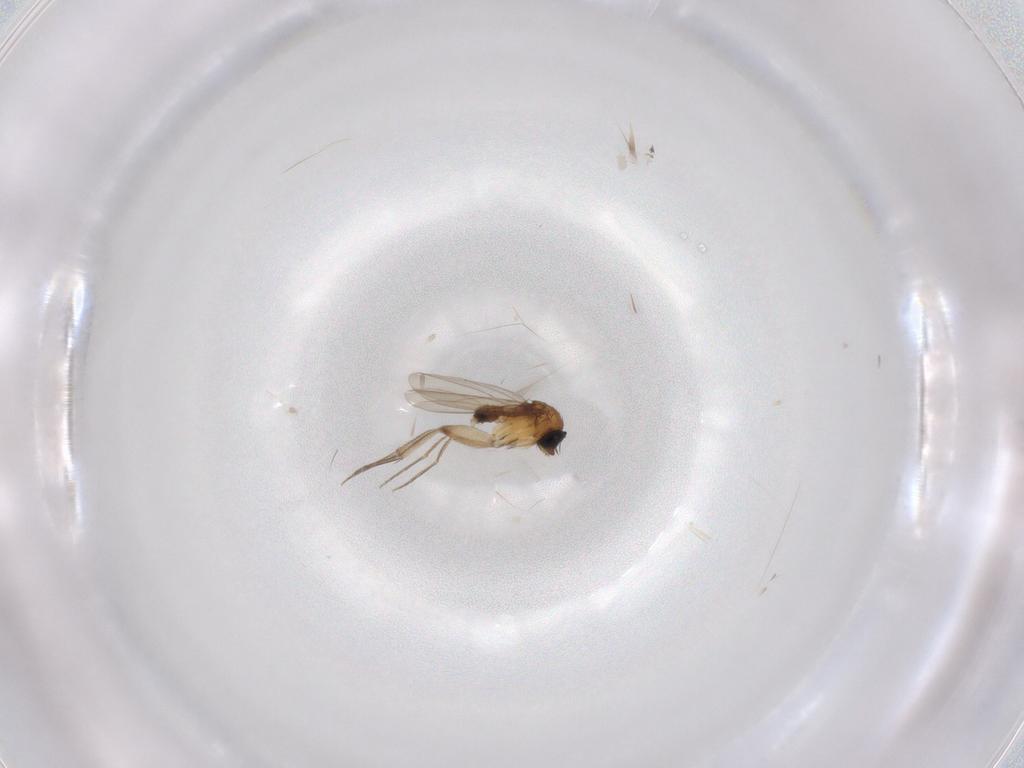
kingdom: Animalia
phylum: Arthropoda
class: Insecta
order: Diptera
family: Phoridae
